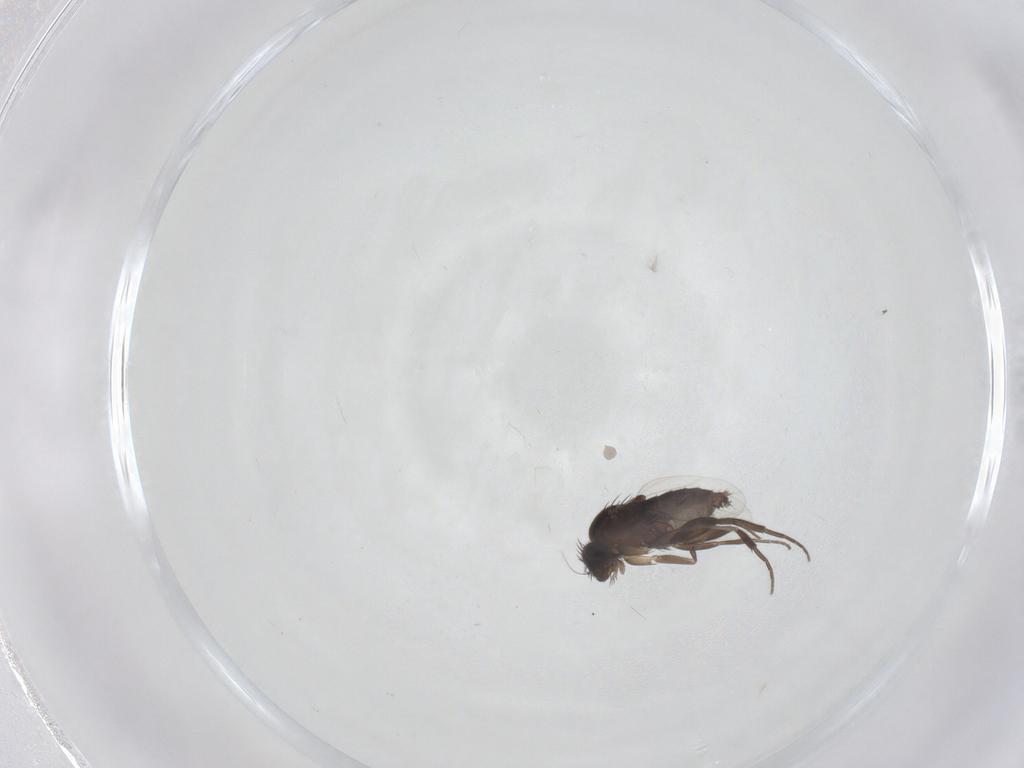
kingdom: Animalia
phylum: Arthropoda
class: Insecta
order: Diptera
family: Phoridae
